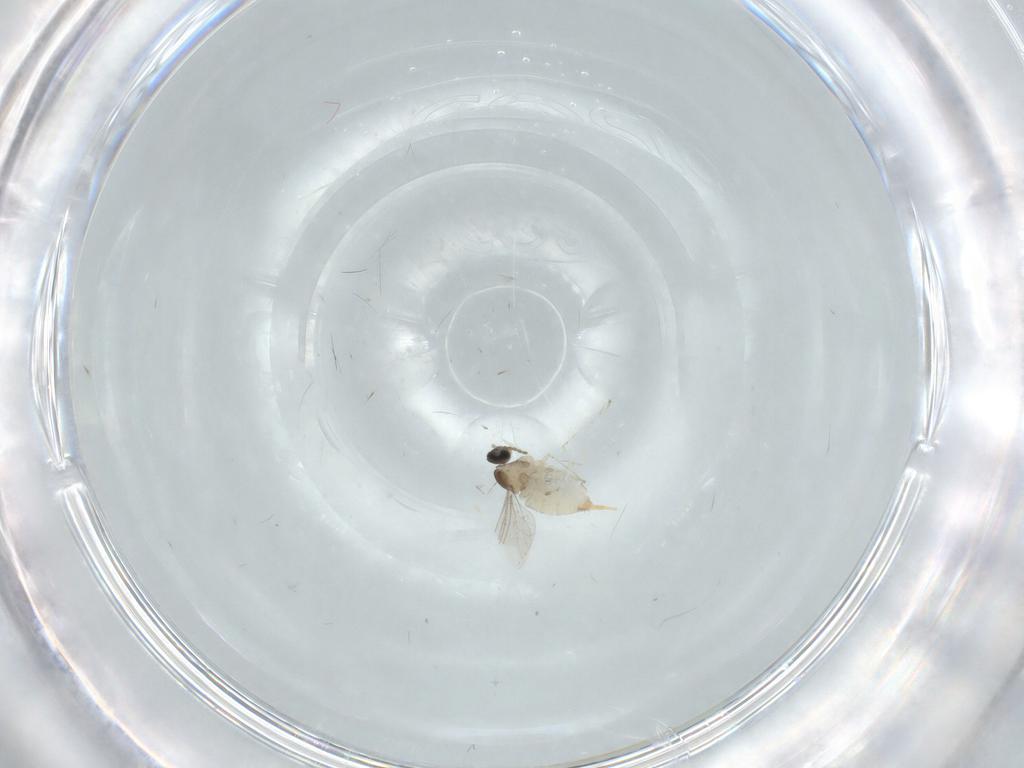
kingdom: Animalia
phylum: Arthropoda
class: Insecta
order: Diptera
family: Cecidomyiidae
